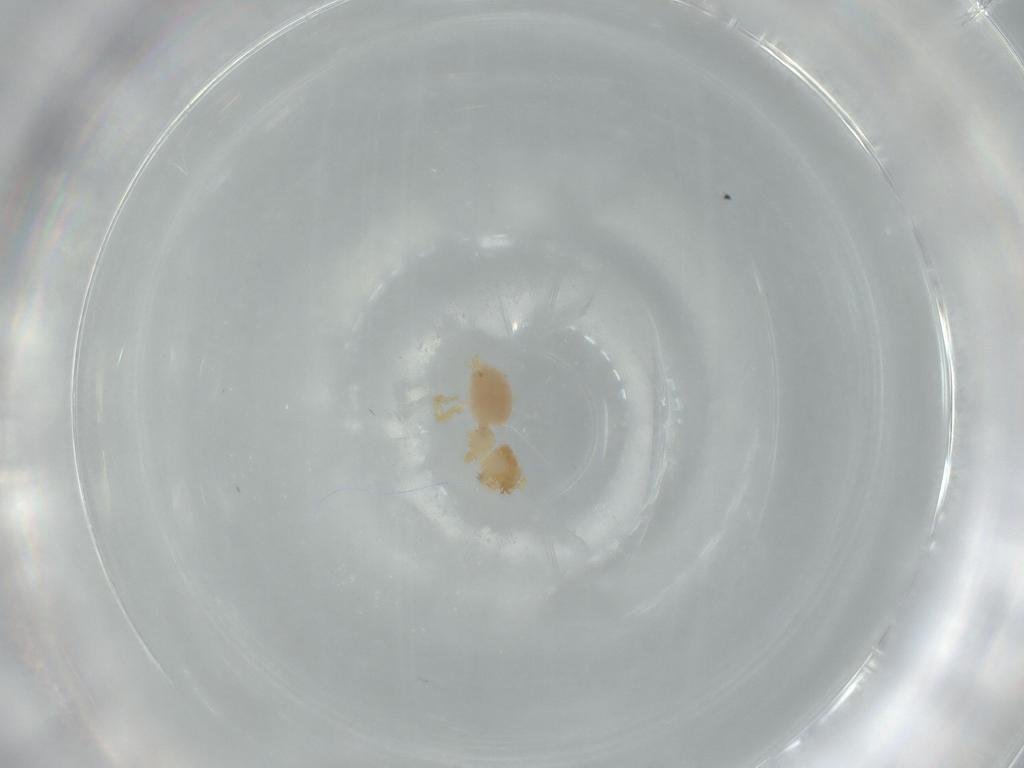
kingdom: Animalia
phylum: Arthropoda
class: Arachnida
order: Araneae
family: Oonopidae
